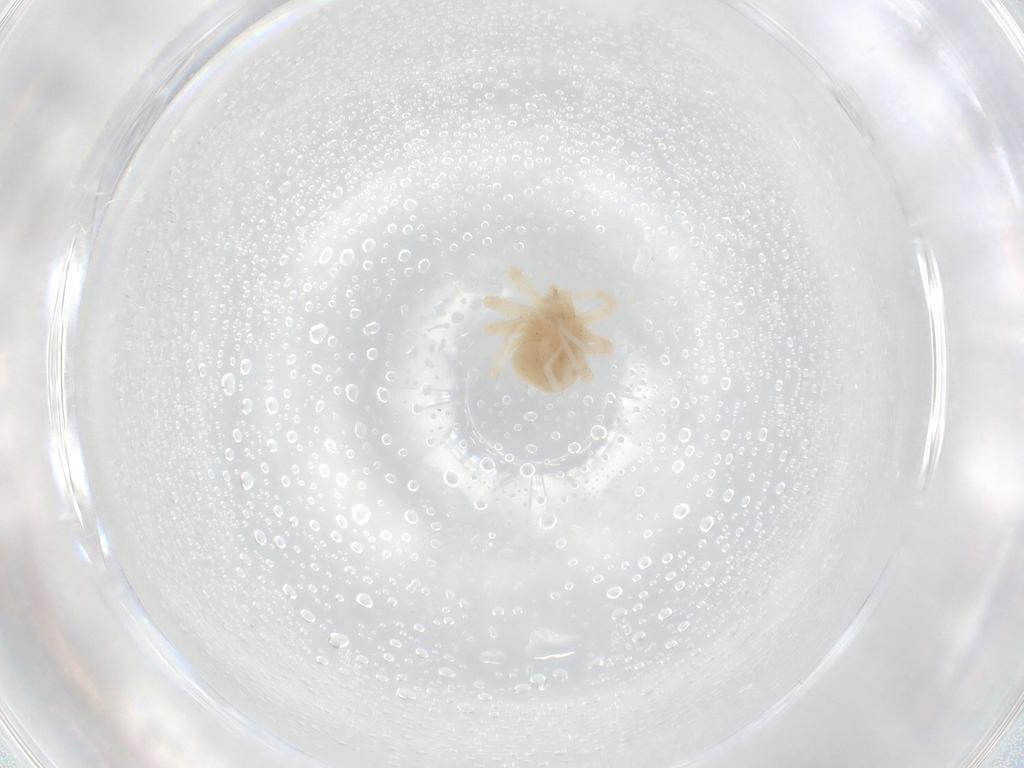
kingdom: Animalia
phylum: Arthropoda
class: Arachnida
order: Trombidiformes
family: Anystidae
